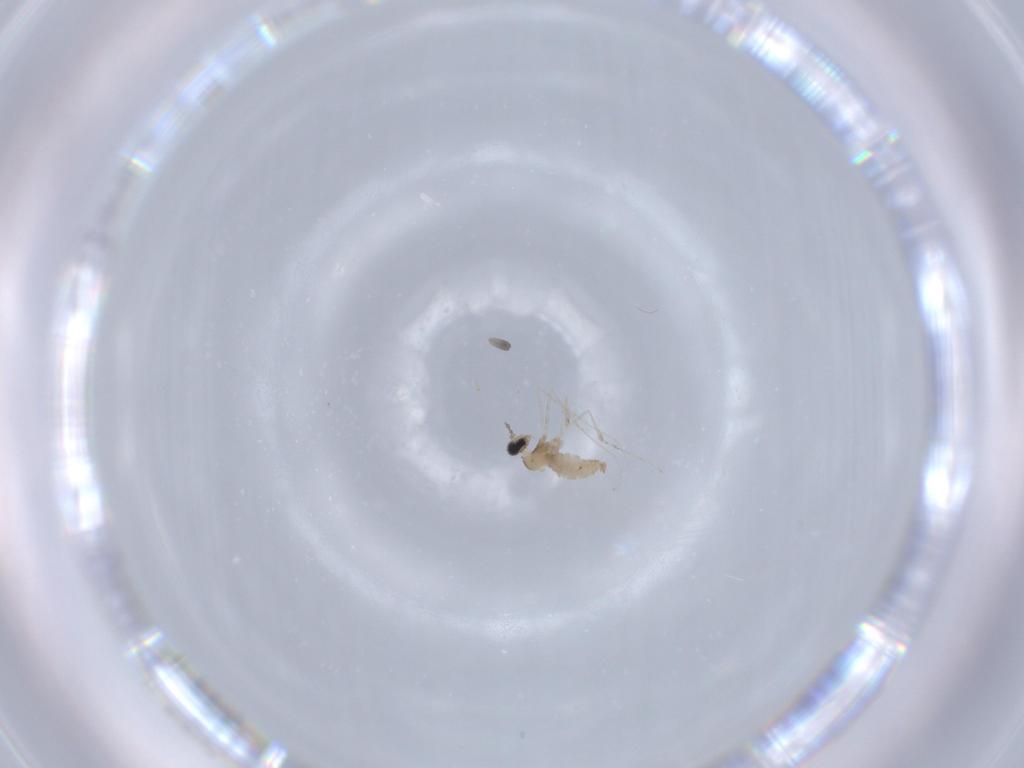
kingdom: Animalia
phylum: Arthropoda
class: Insecta
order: Diptera
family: Cecidomyiidae
